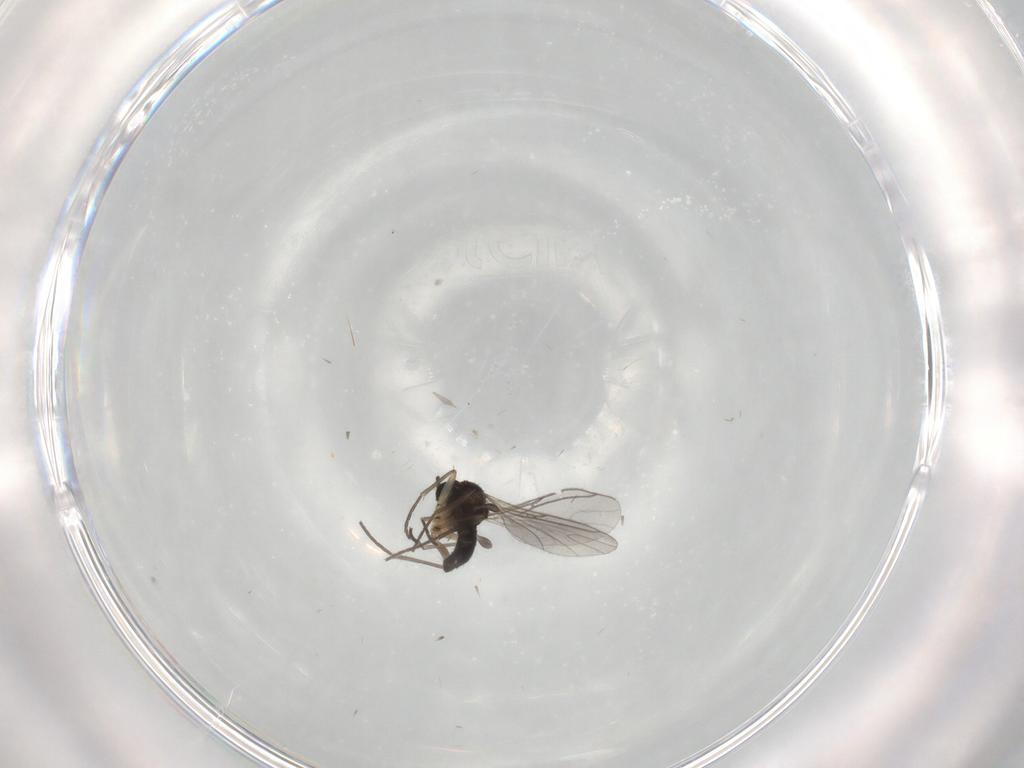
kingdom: Animalia
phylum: Arthropoda
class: Insecta
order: Diptera
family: Sciaridae
